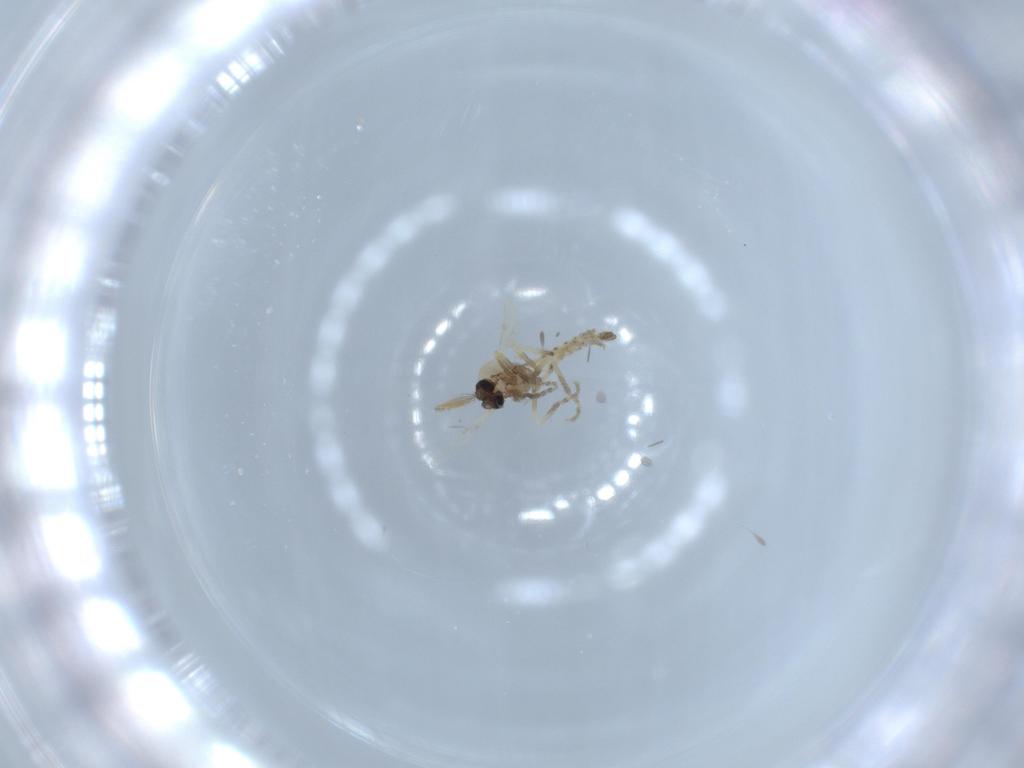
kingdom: Animalia
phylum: Arthropoda
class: Insecta
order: Diptera
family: Ceratopogonidae
